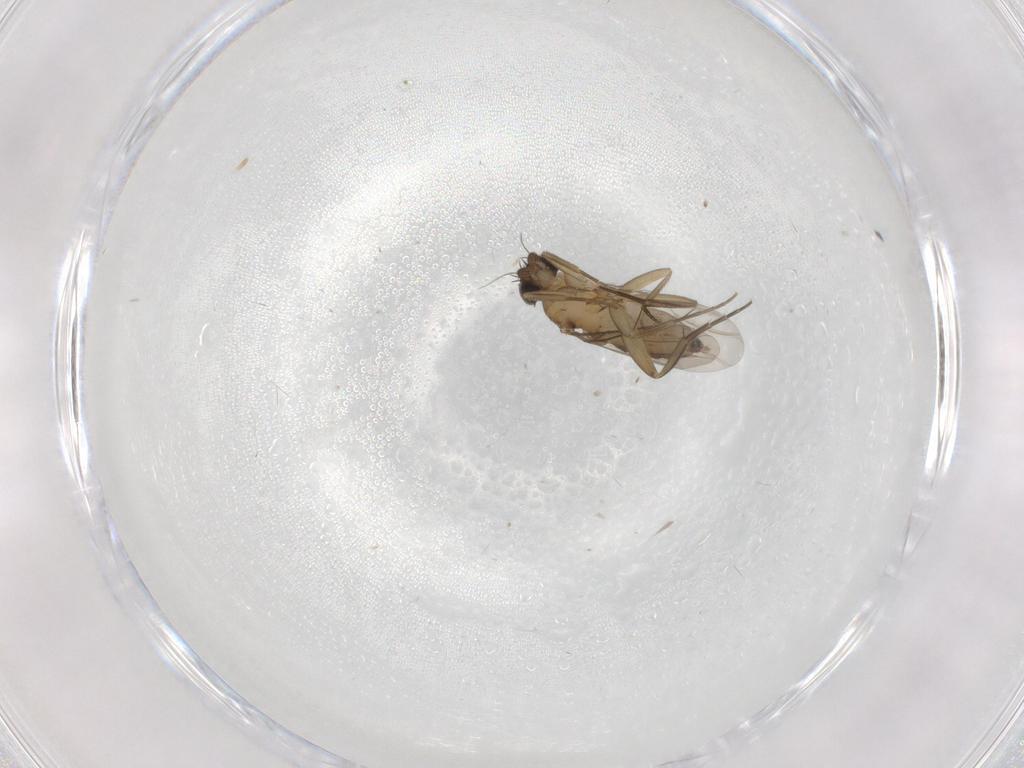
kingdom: Animalia
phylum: Arthropoda
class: Insecta
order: Diptera
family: Phoridae
